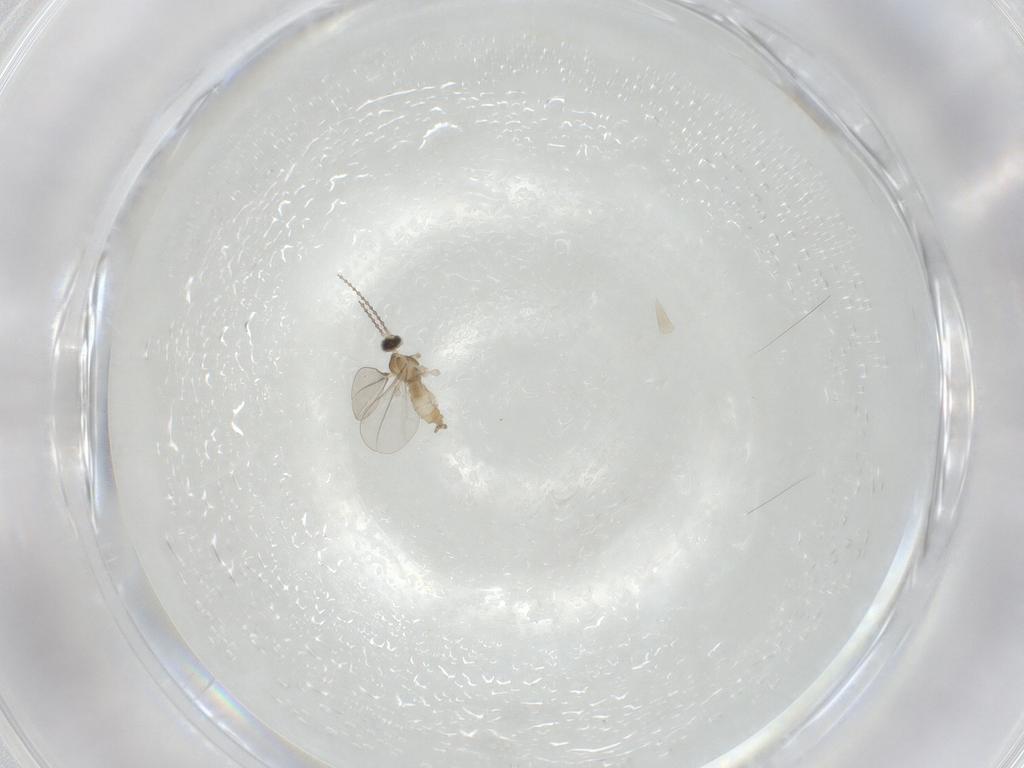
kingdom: Animalia
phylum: Arthropoda
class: Insecta
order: Diptera
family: Cecidomyiidae
